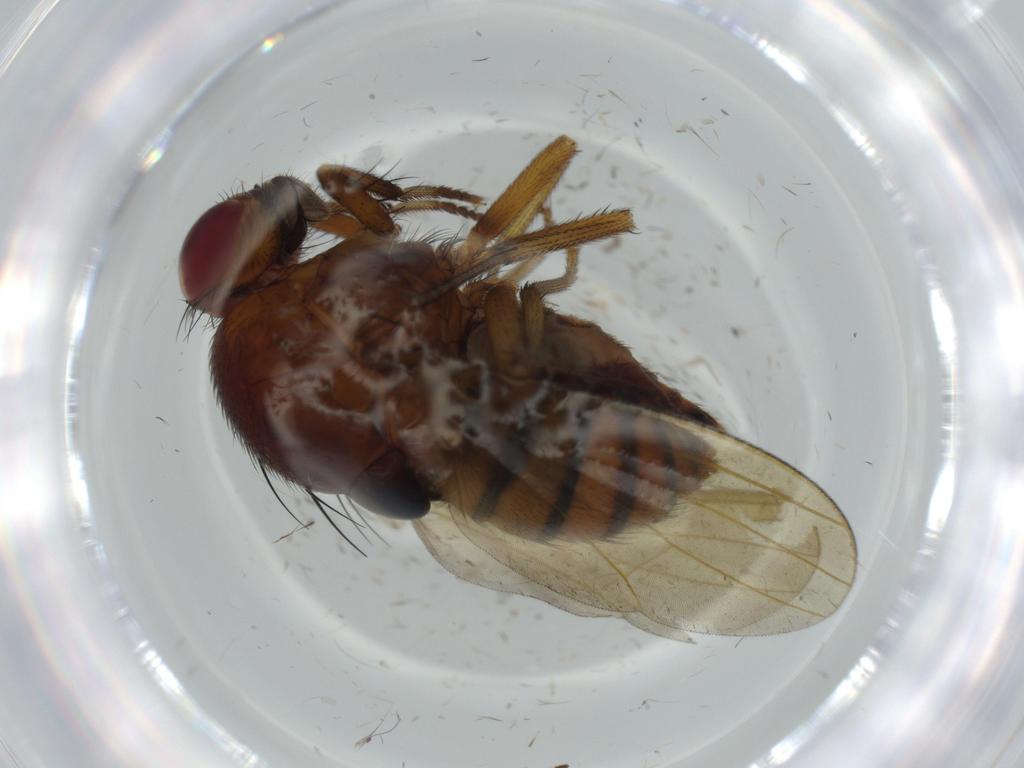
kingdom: Animalia
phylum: Arthropoda
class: Insecta
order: Diptera
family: Phoridae
